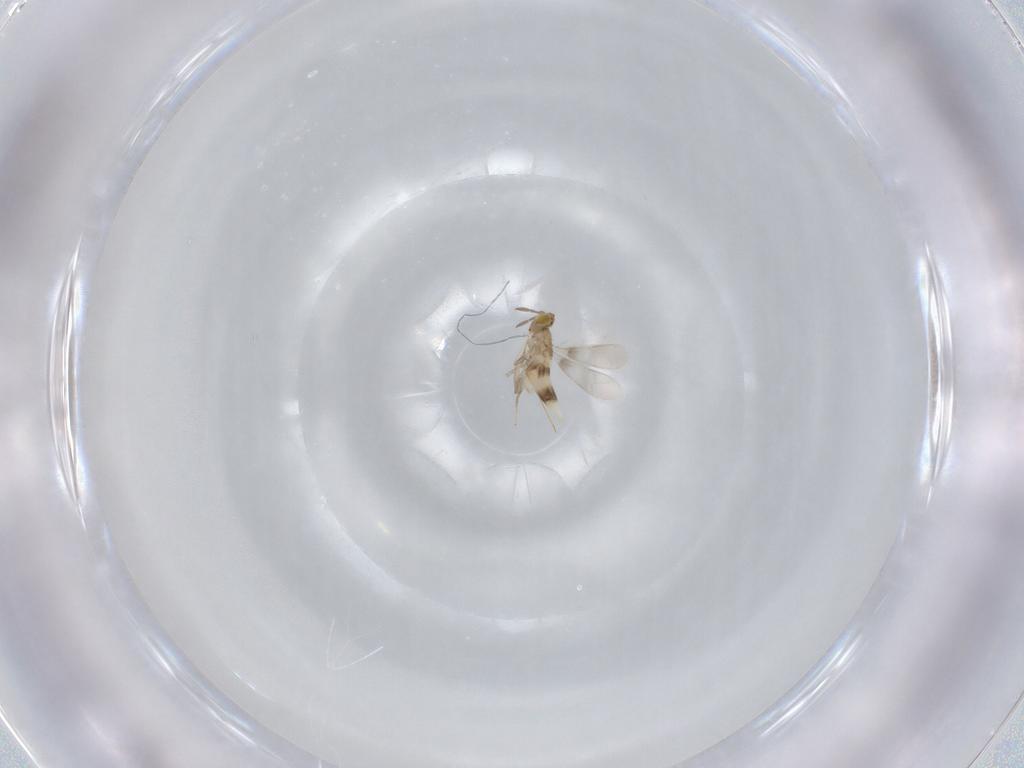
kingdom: Animalia
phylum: Arthropoda
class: Insecta
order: Hymenoptera
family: Aphelinidae
